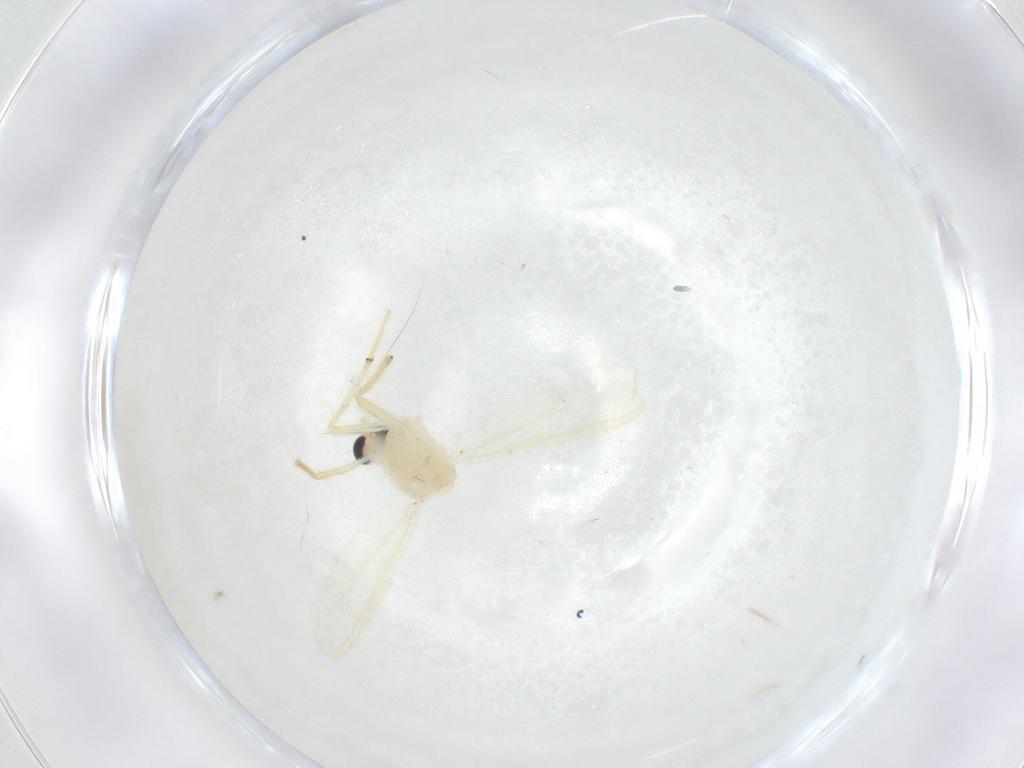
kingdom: Animalia
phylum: Arthropoda
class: Insecta
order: Diptera
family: Chironomidae
